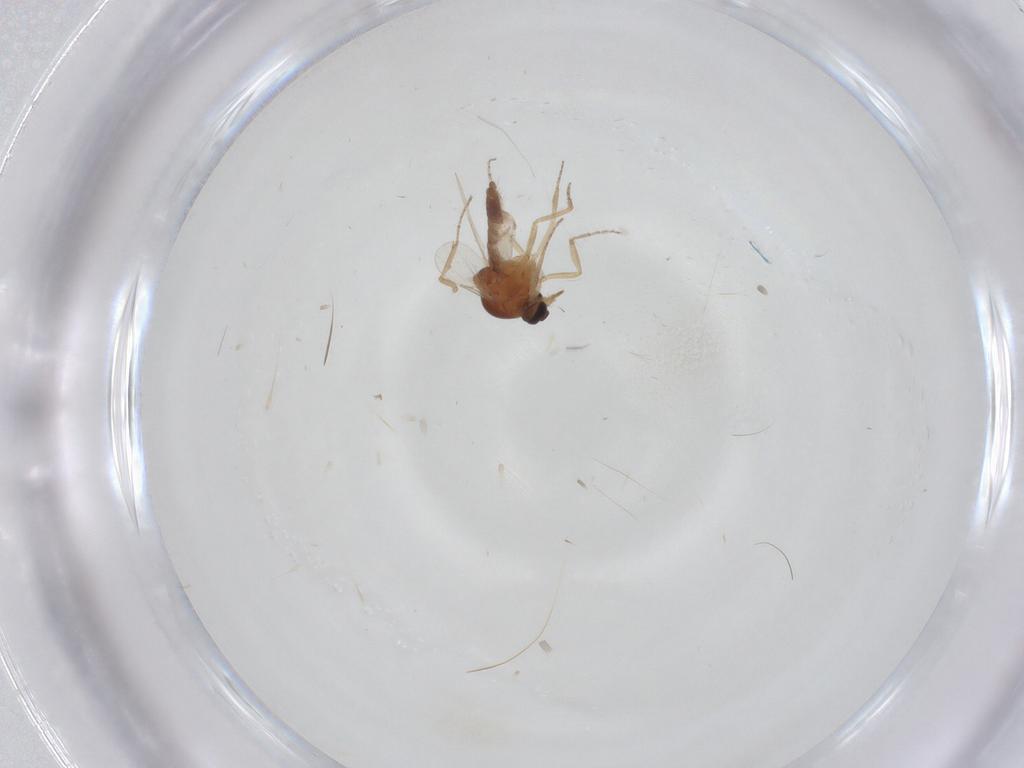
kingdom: Animalia
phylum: Arthropoda
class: Insecta
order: Diptera
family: Ceratopogonidae
